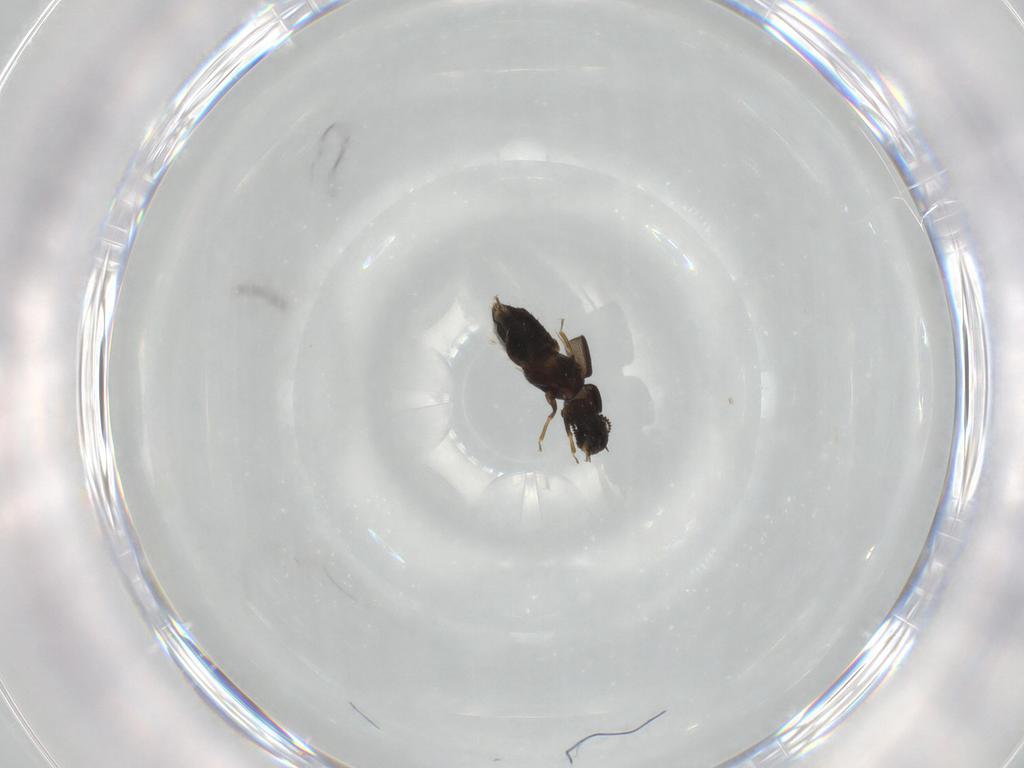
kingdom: Animalia
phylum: Arthropoda
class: Insecta
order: Coleoptera
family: Staphylinidae
